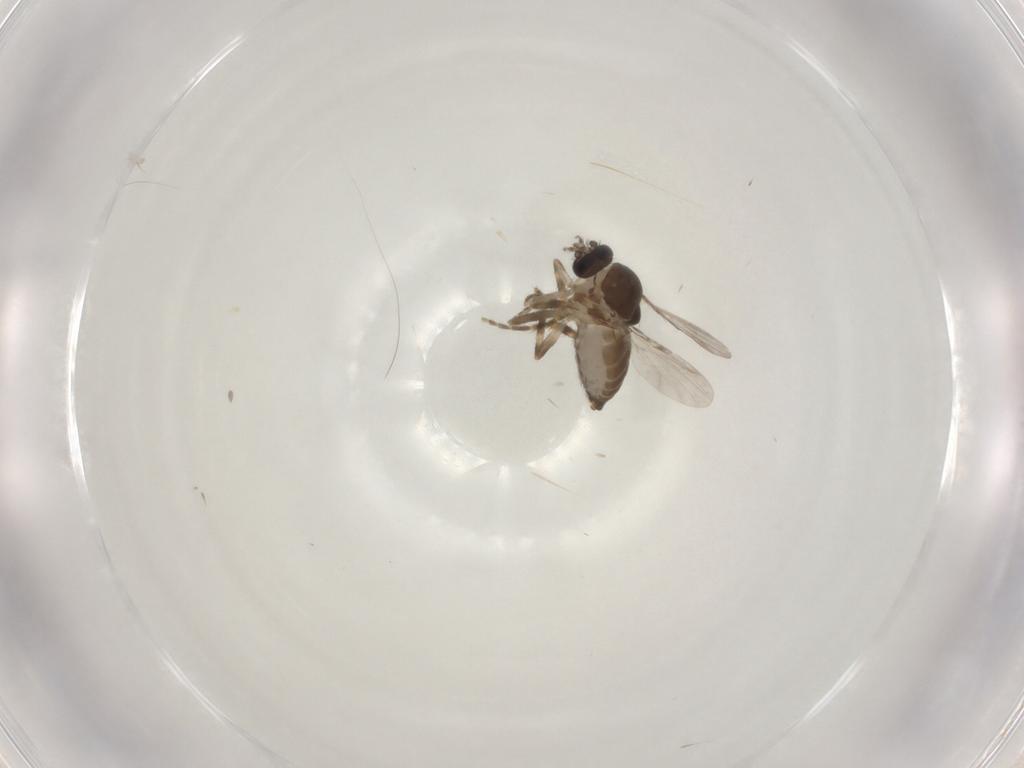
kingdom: Animalia
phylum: Arthropoda
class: Insecta
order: Diptera
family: Ceratopogonidae
